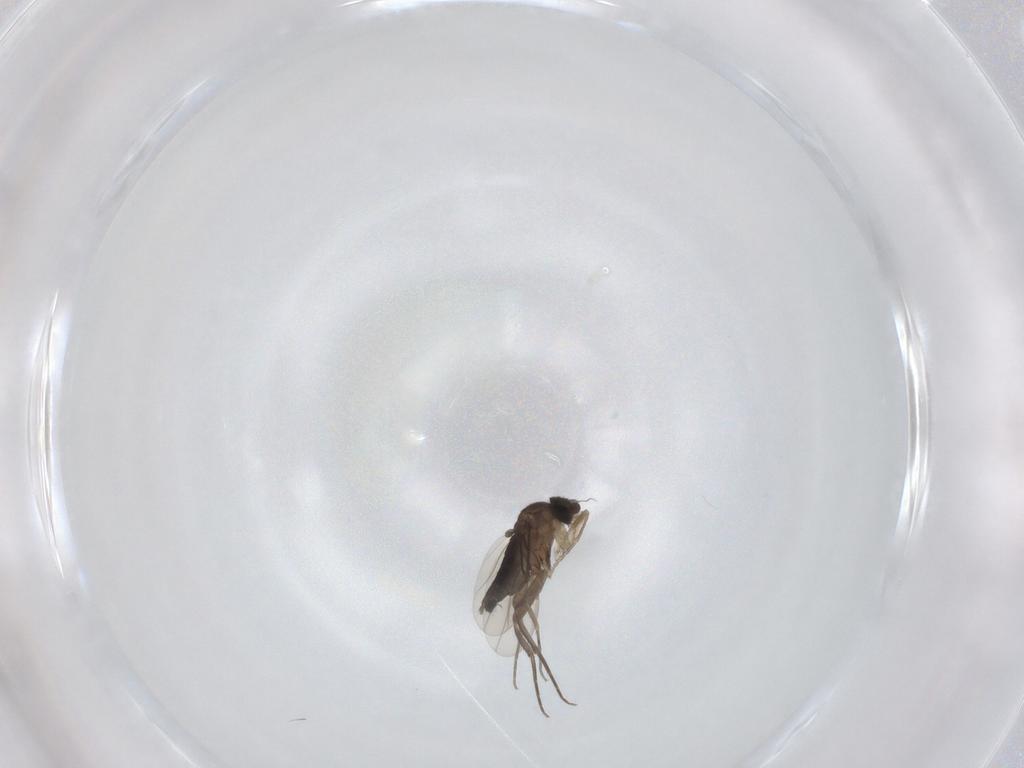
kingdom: Animalia
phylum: Arthropoda
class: Insecta
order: Diptera
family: Phoridae
